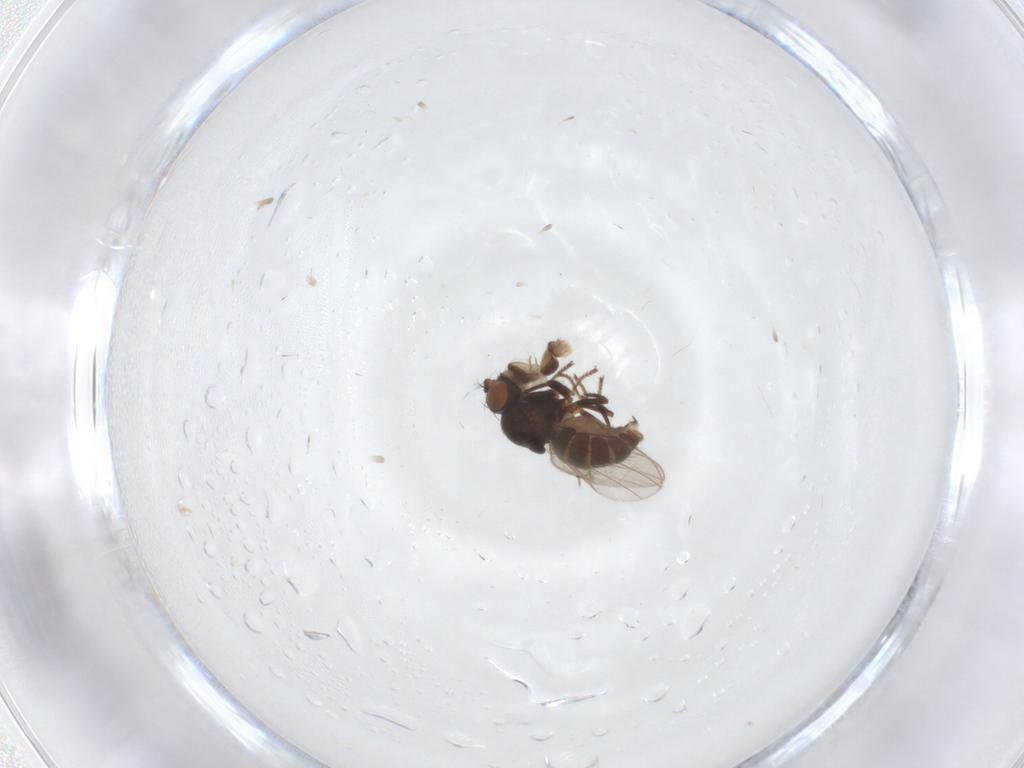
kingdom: Animalia
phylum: Arthropoda
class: Insecta
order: Diptera
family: Ephydridae
